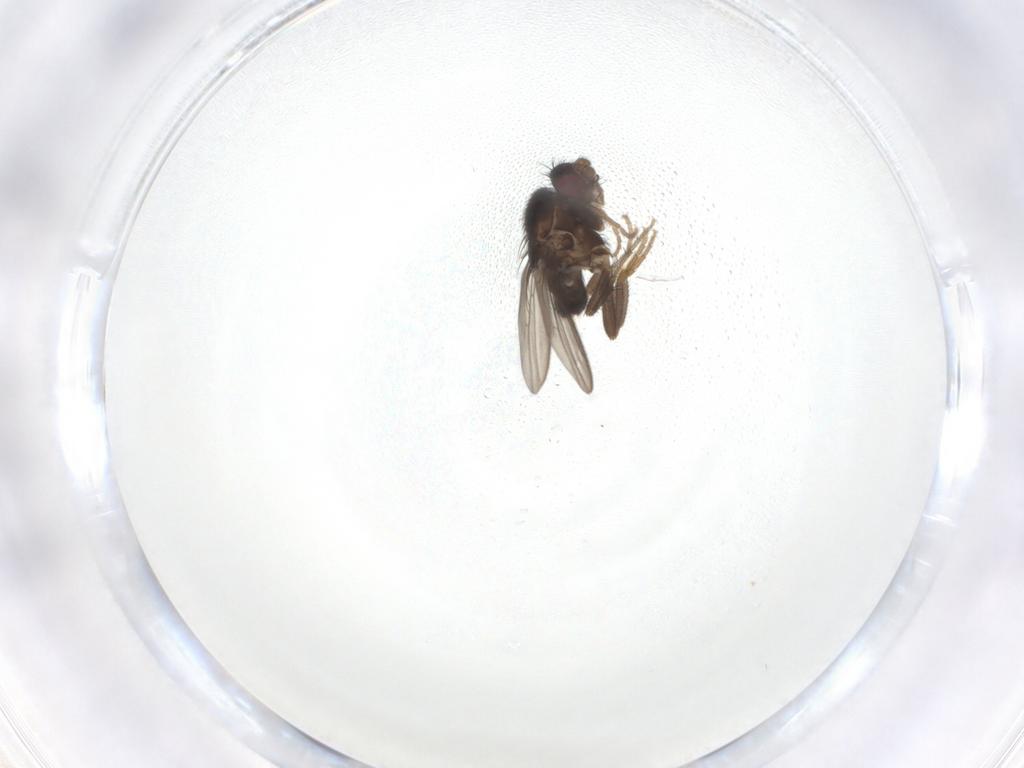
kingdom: Animalia
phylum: Arthropoda
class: Insecta
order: Diptera
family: Sphaeroceridae
